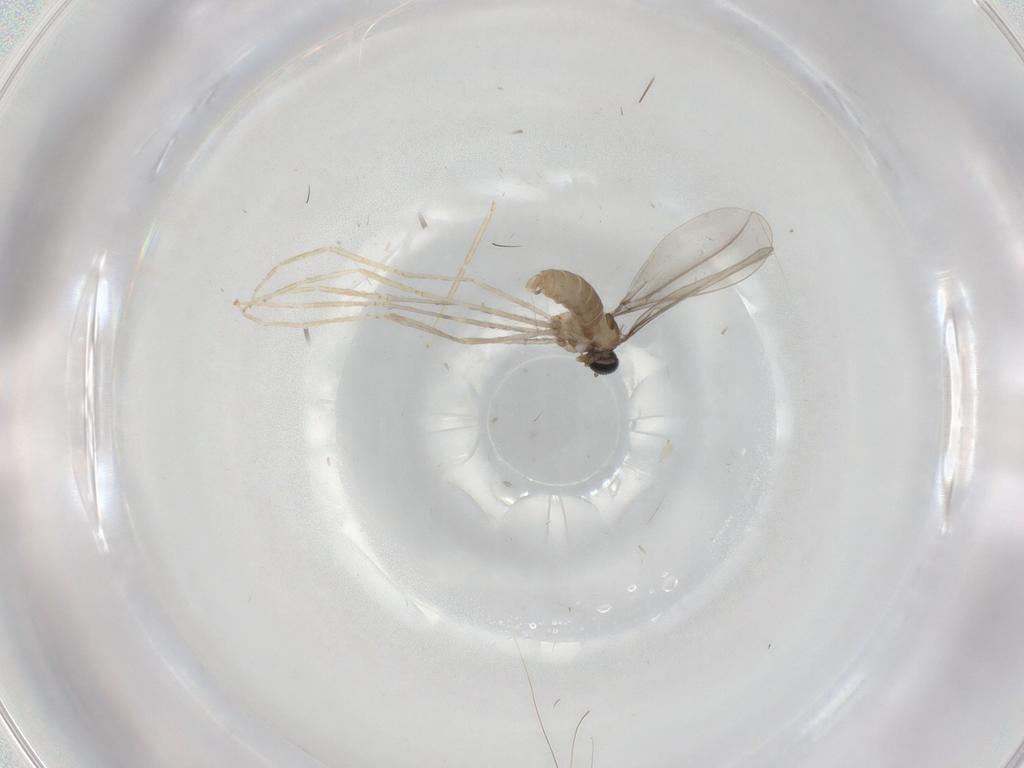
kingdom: Animalia
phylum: Arthropoda
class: Insecta
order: Diptera
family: Cecidomyiidae
